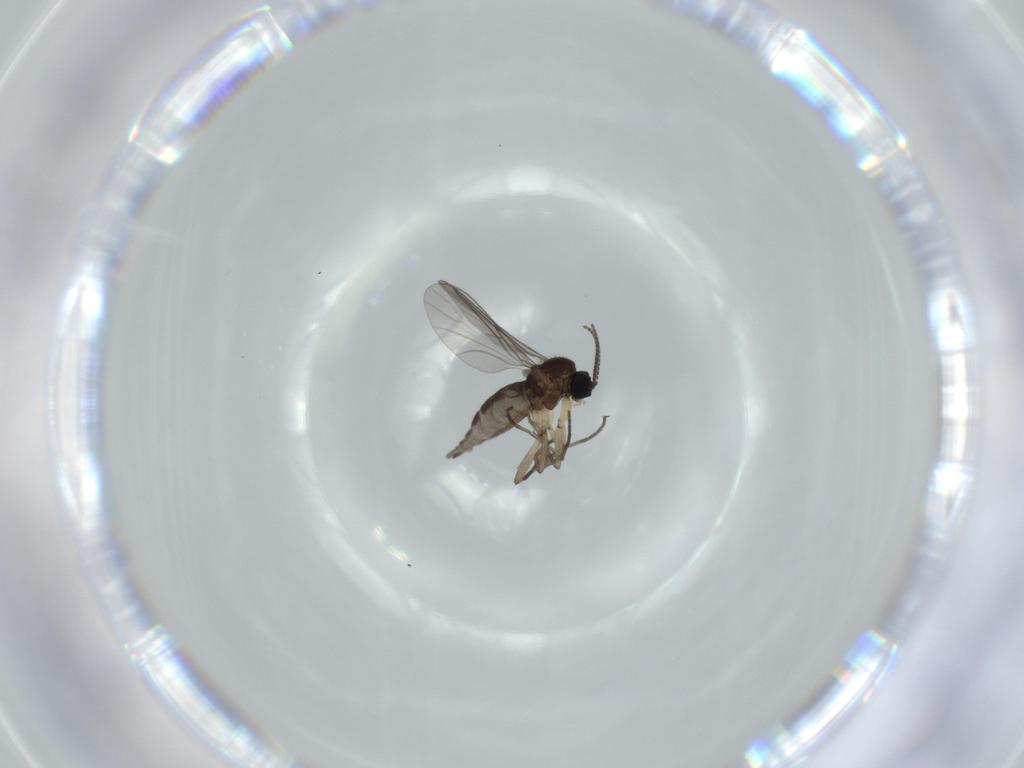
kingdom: Animalia
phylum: Arthropoda
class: Insecta
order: Diptera
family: Sciaridae
